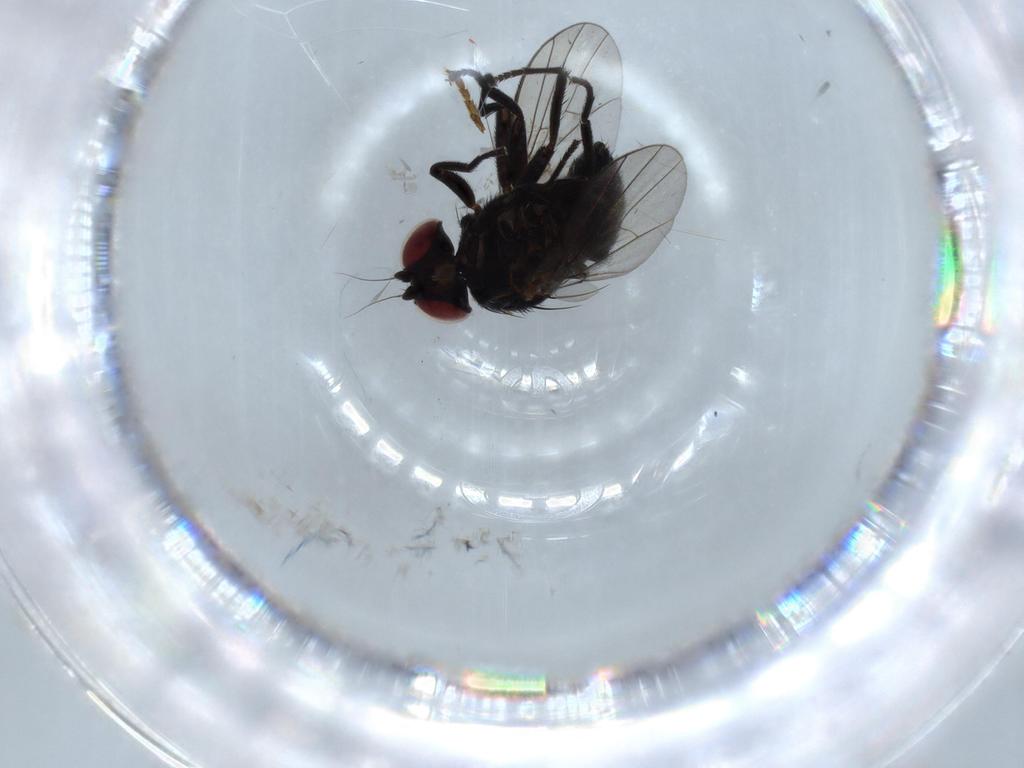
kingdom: Animalia
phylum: Arthropoda
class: Insecta
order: Diptera
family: Agromyzidae
